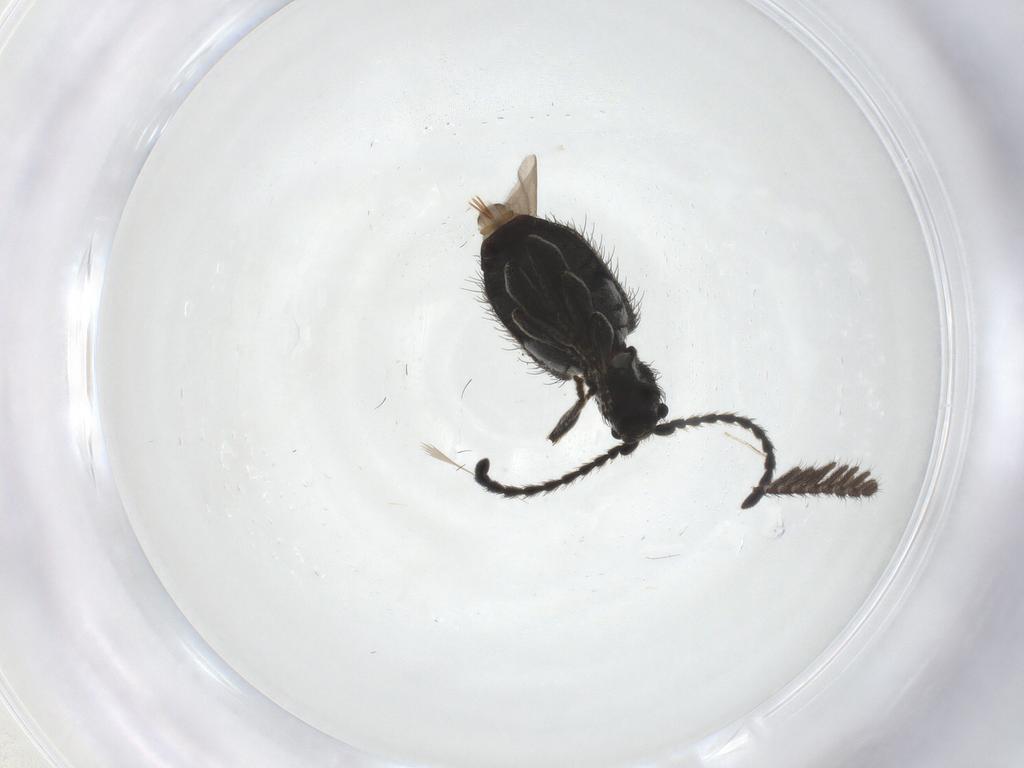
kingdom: Animalia
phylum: Arthropoda
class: Insecta
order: Coleoptera
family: Phengodidae
